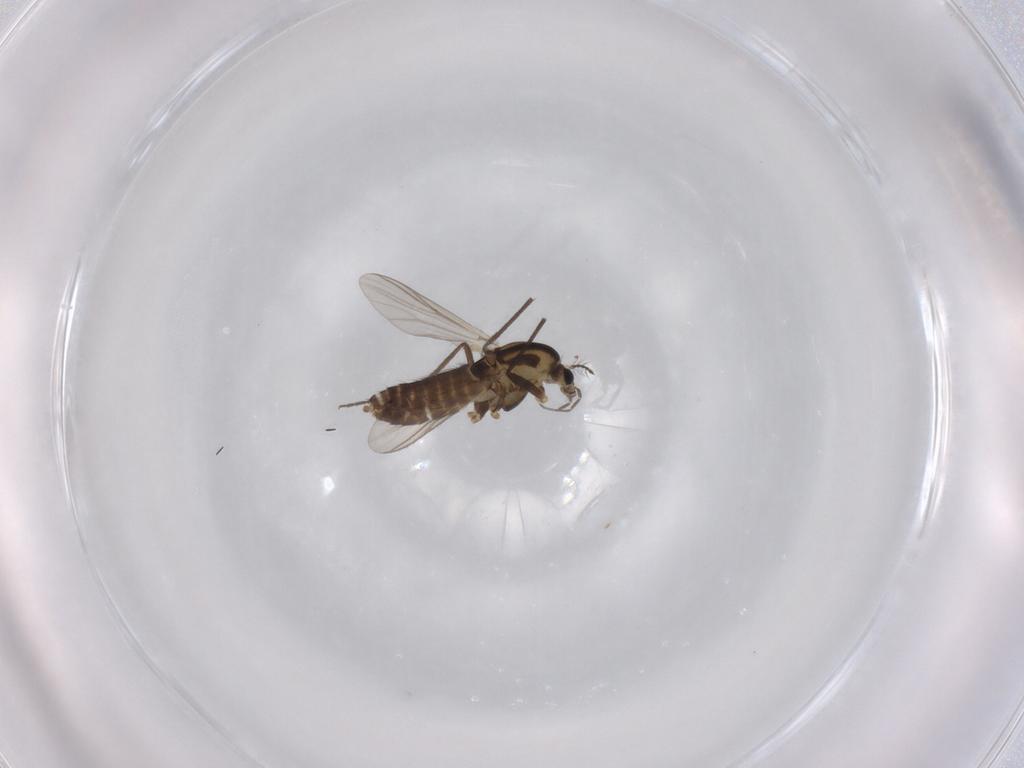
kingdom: Animalia
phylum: Arthropoda
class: Insecta
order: Diptera
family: Chironomidae
